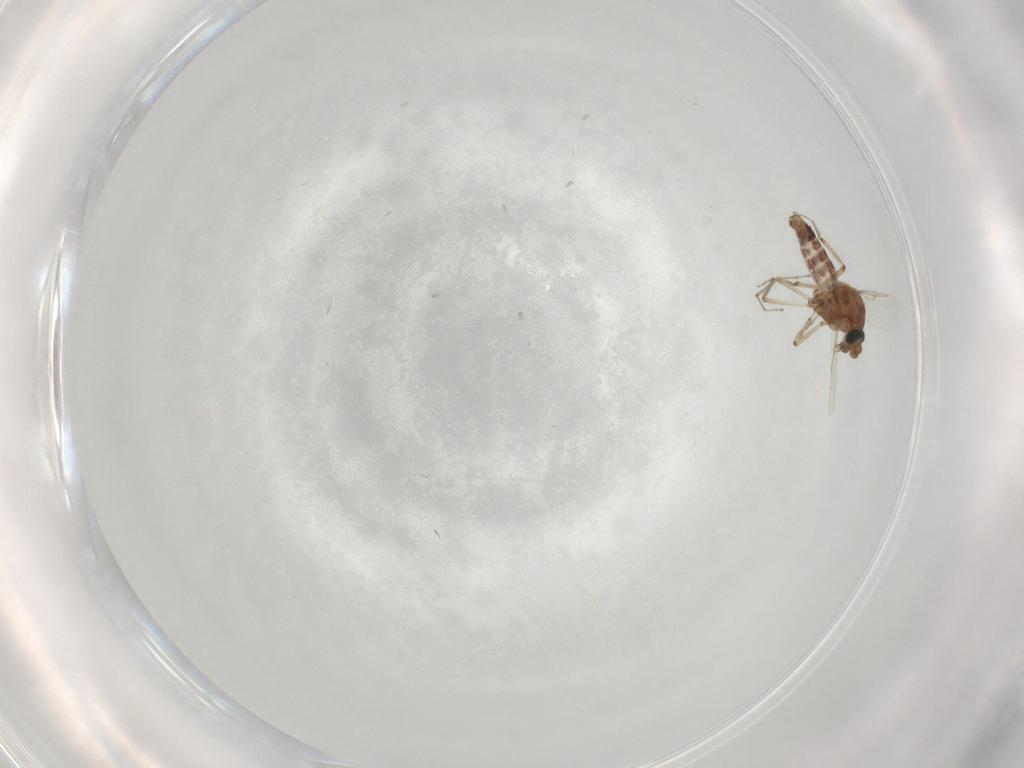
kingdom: Animalia
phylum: Arthropoda
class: Insecta
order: Diptera
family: Ceratopogonidae
